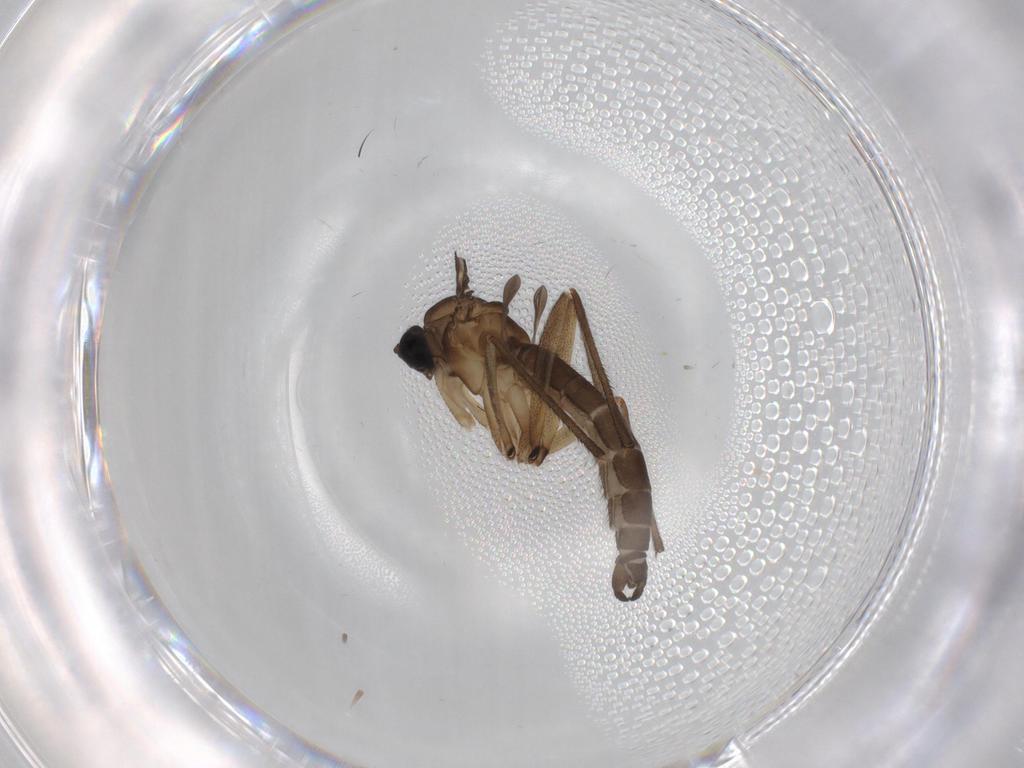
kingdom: Animalia
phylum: Arthropoda
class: Insecta
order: Diptera
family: Sciaridae
